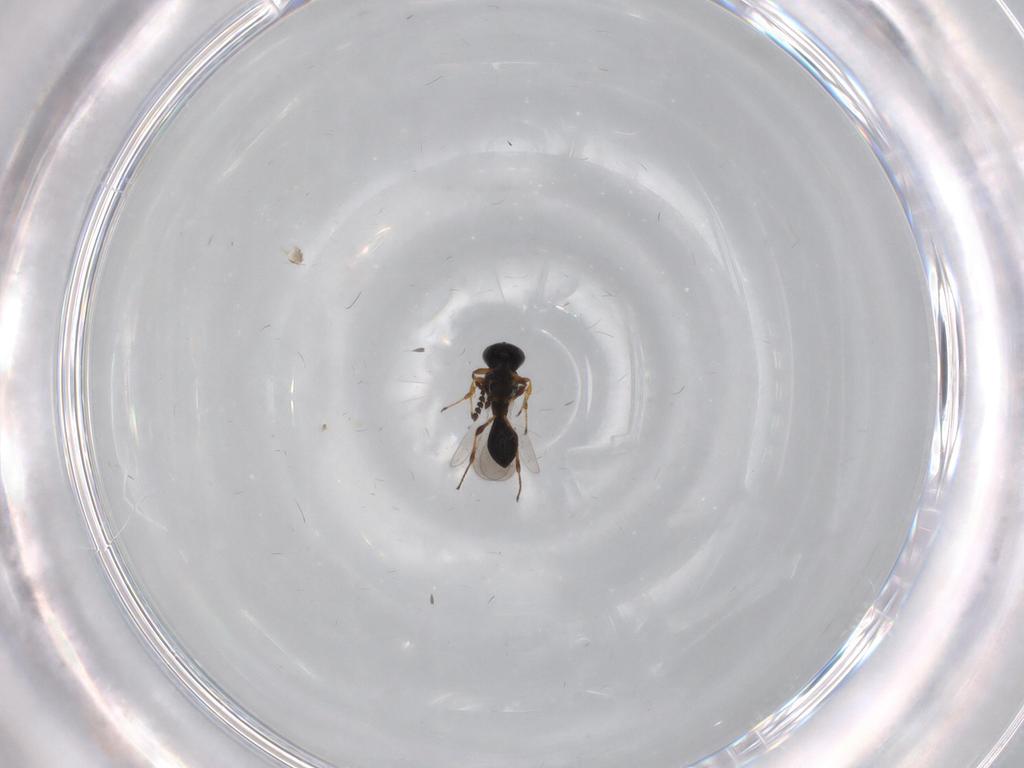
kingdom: Animalia
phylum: Arthropoda
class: Insecta
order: Hymenoptera
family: Platygastridae
